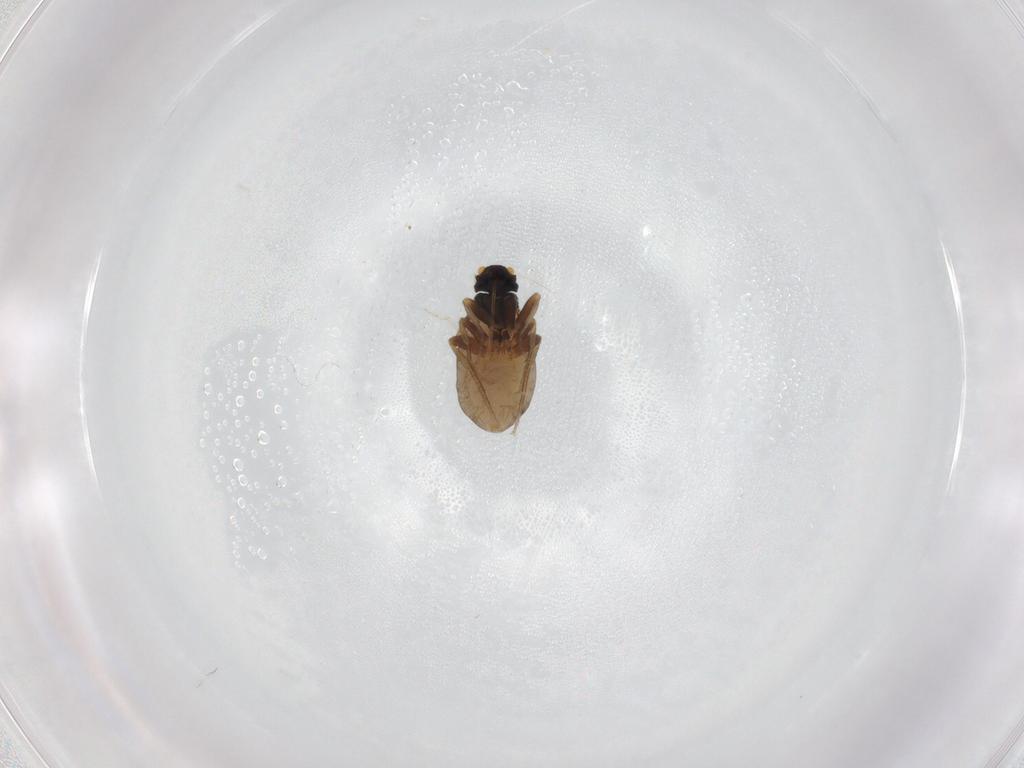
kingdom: Animalia
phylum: Arthropoda
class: Insecta
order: Diptera
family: Phoridae
